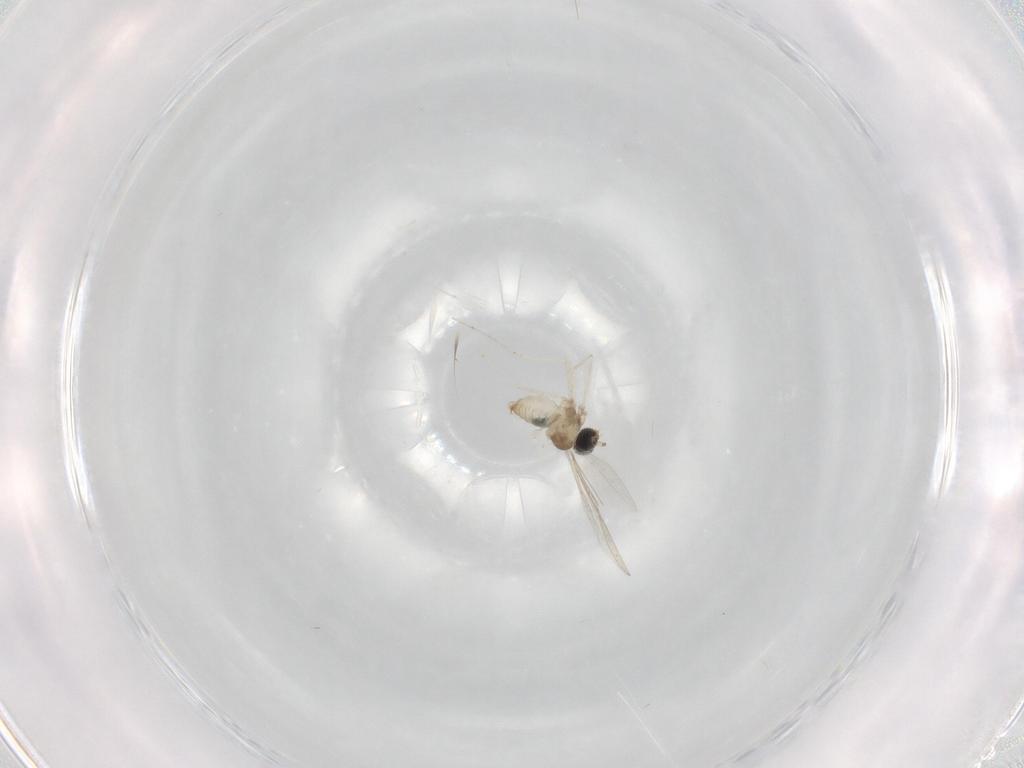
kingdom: Animalia
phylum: Arthropoda
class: Insecta
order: Diptera
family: Cecidomyiidae
